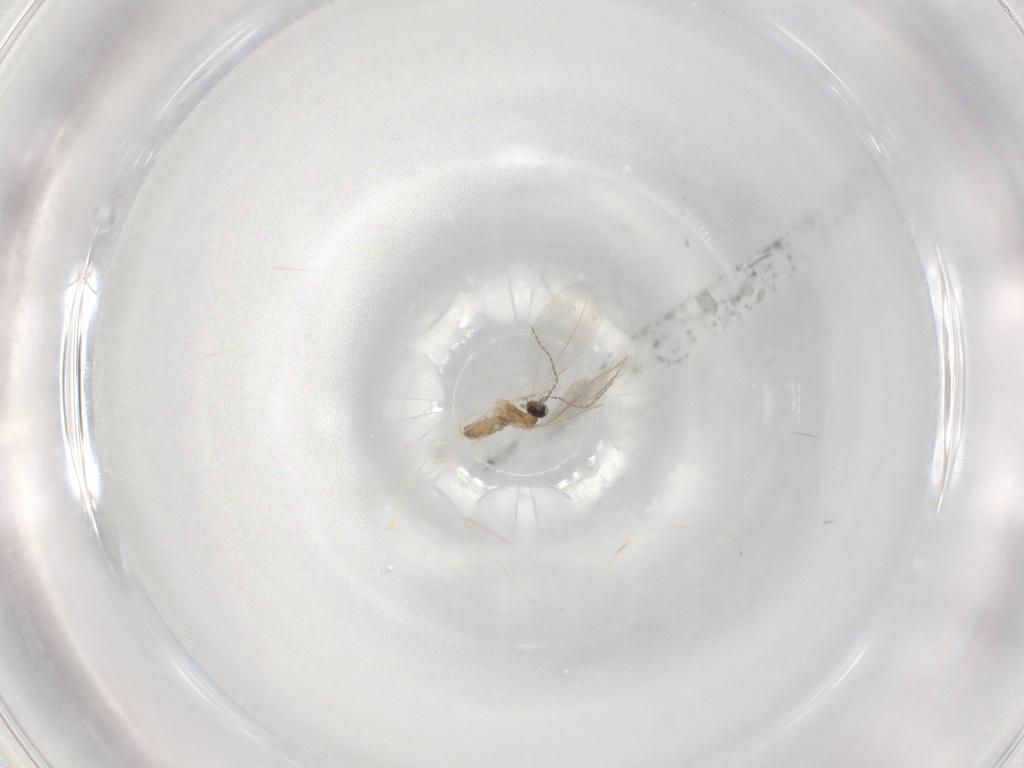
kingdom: Animalia
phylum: Arthropoda
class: Insecta
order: Diptera
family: Cecidomyiidae
